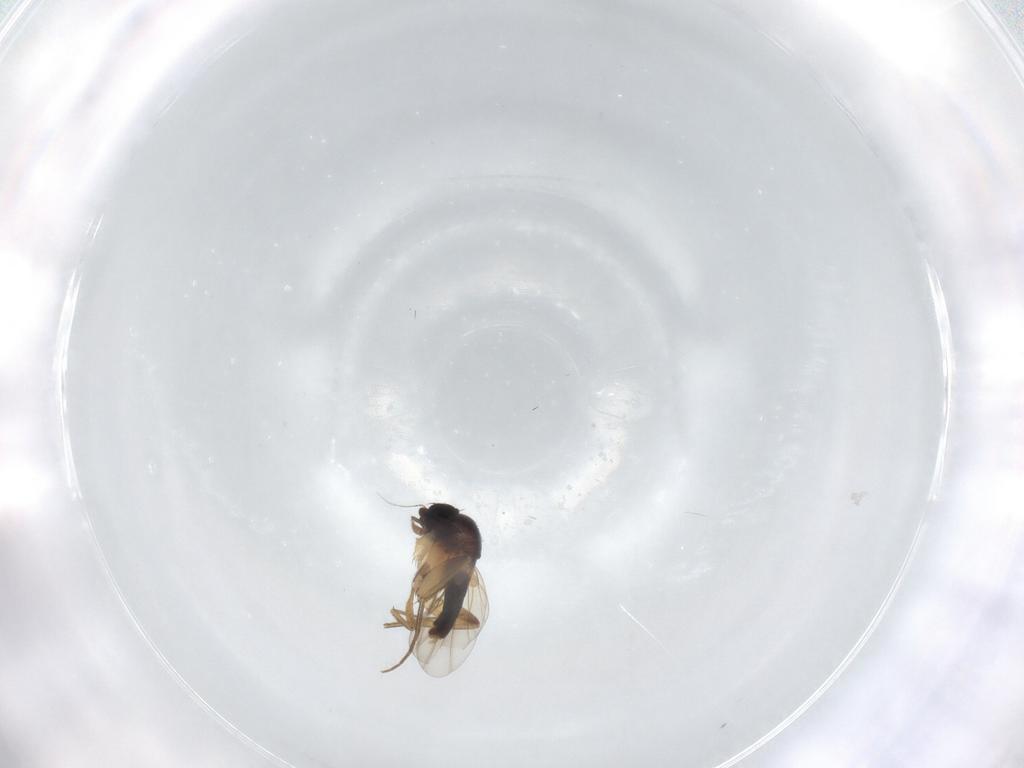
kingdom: Animalia
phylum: Arthropoda
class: Insecta
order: Diptera
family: Phoridae
